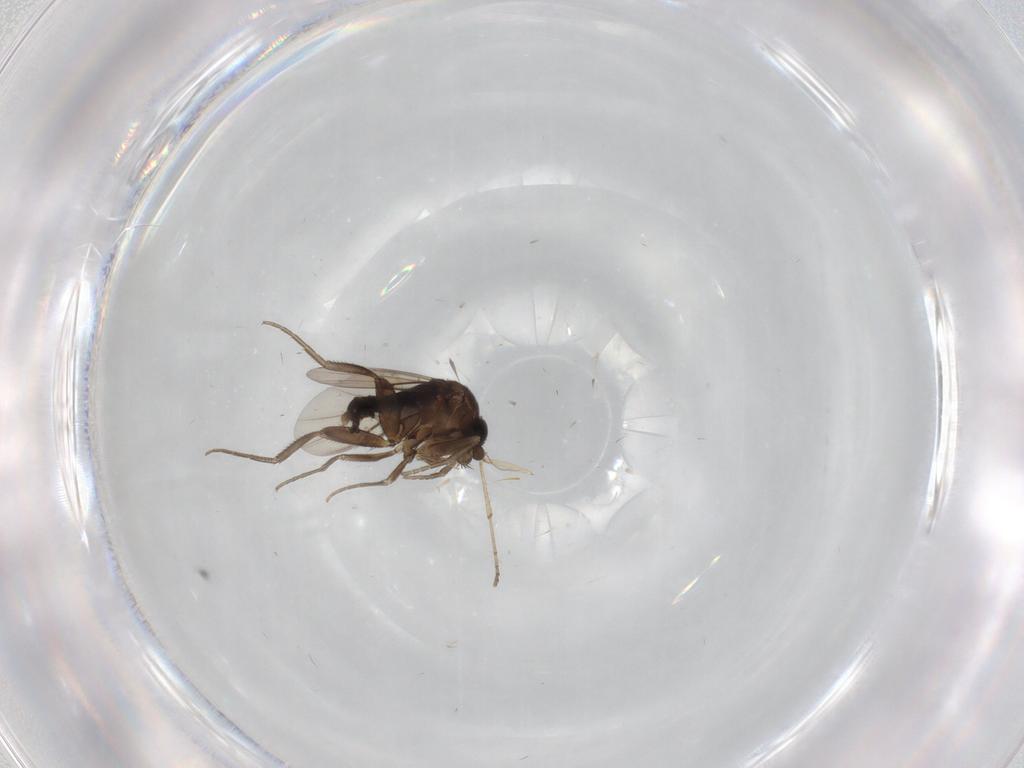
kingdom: Animalia
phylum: Arthropoda
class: Insecta
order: Diptera
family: Phoridae
